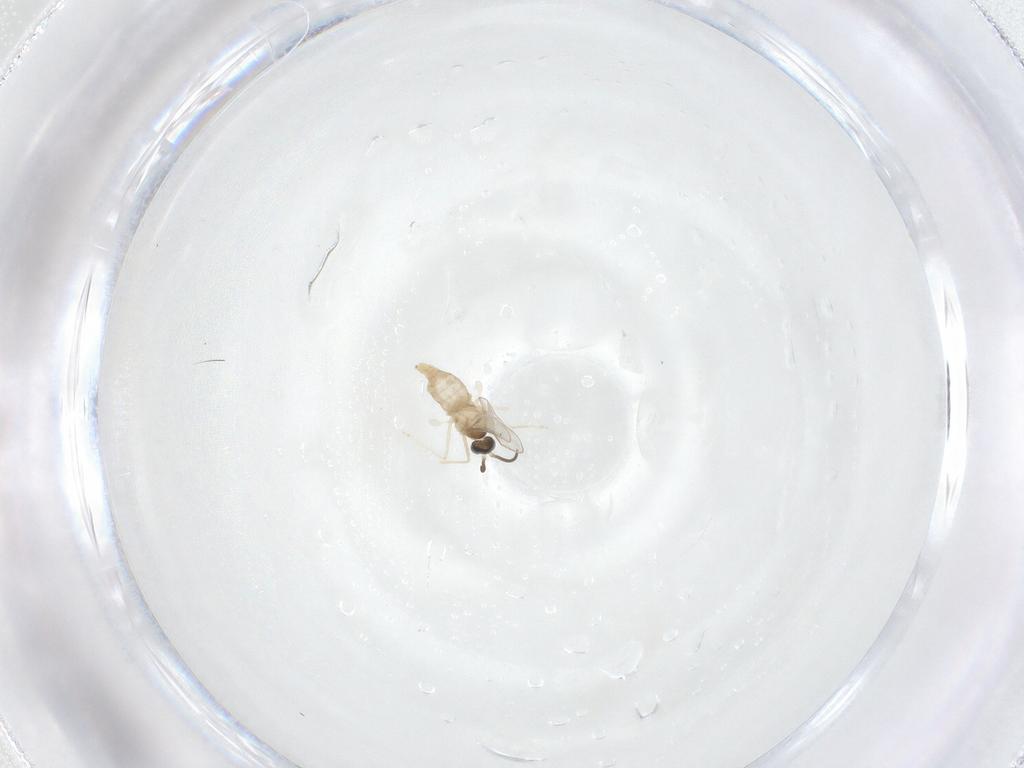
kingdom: Animalia
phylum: Arthropoda
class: Insecta
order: Diptera
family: Cecidomyiidae
